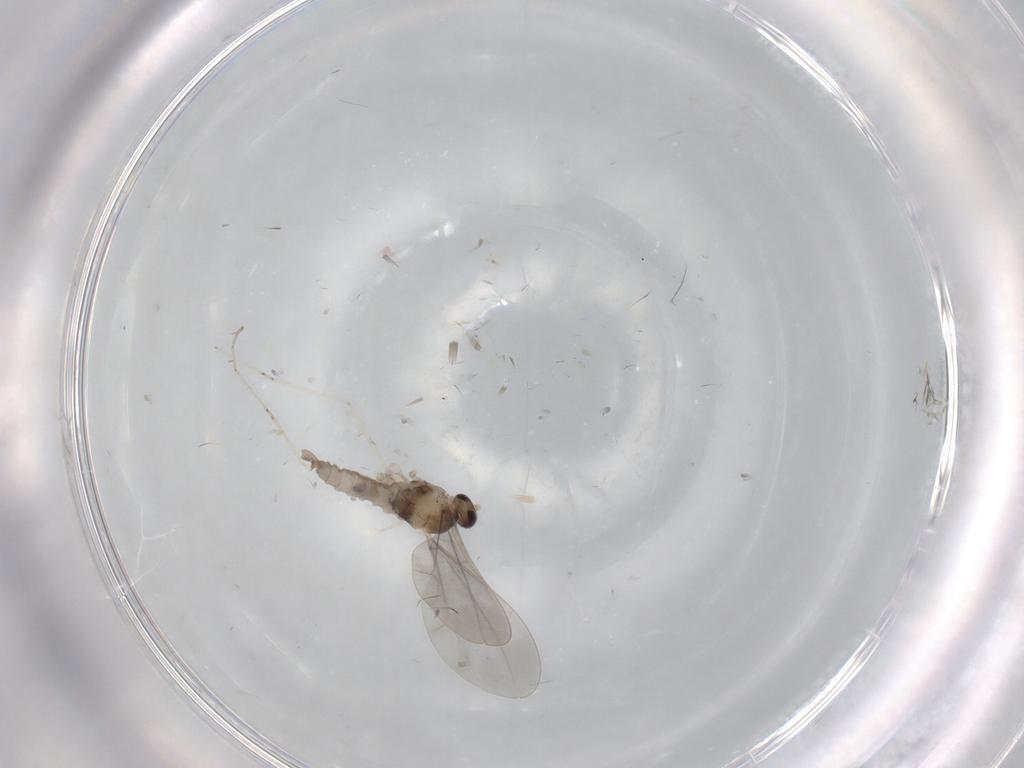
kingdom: Animalia
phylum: Arthropoda
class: Insecta
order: Diptera
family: Cecidomyiidae
